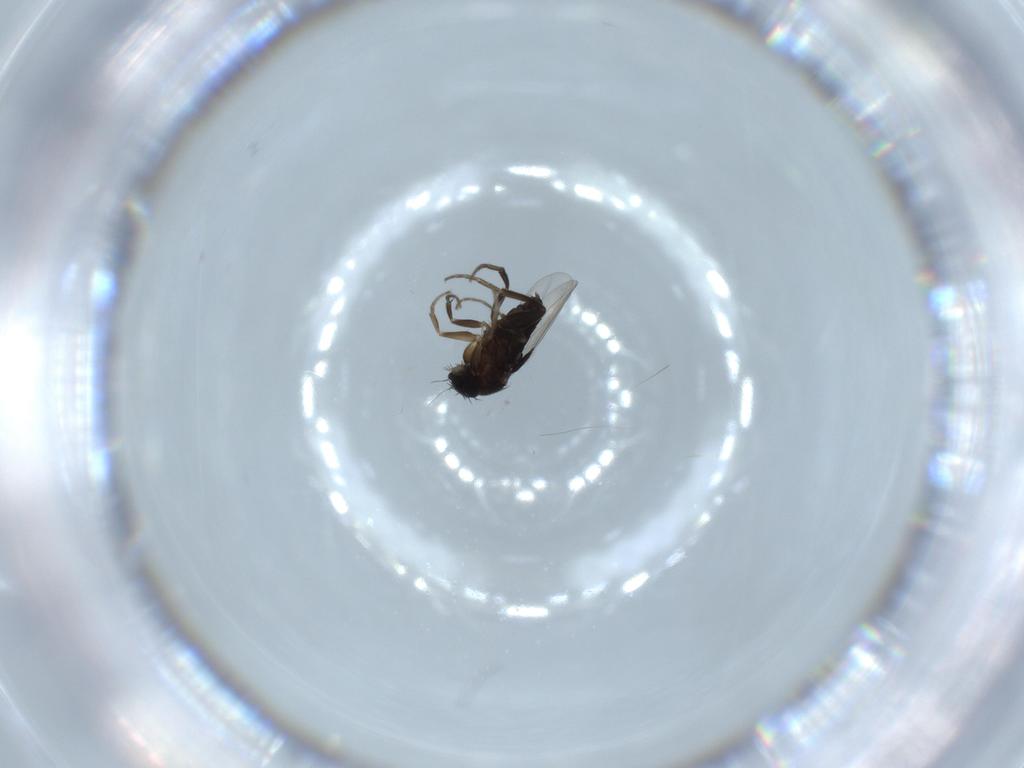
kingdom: Animalia
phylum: Arthropoda
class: Insecta
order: Diptera
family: Phoridae
